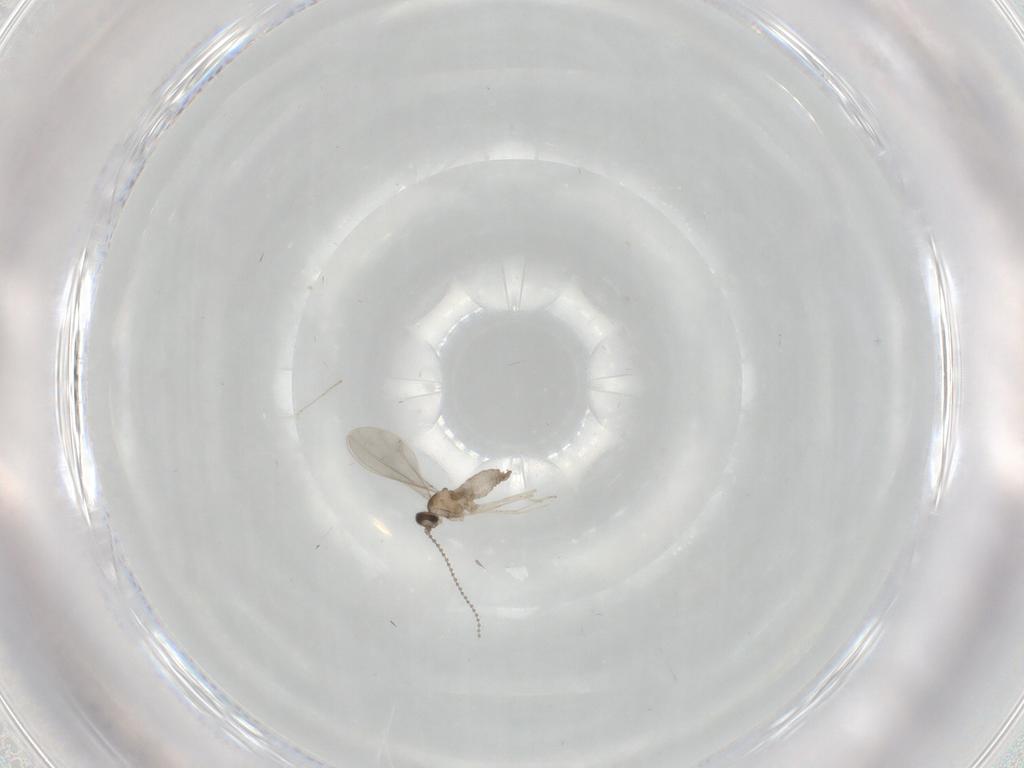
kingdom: Animalia
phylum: Arthropoda
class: Insecta
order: Diptera
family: Cecidomyiidae
